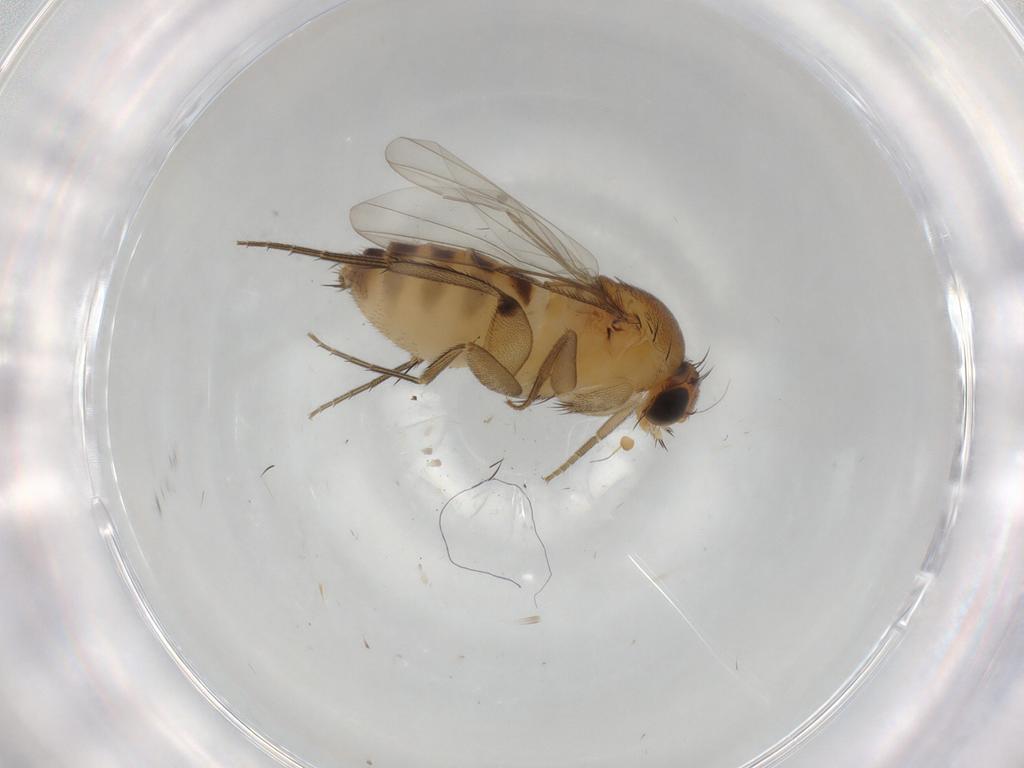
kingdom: Animalia
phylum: Arthropoda
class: Insecta
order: Diptera
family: Phoridae
